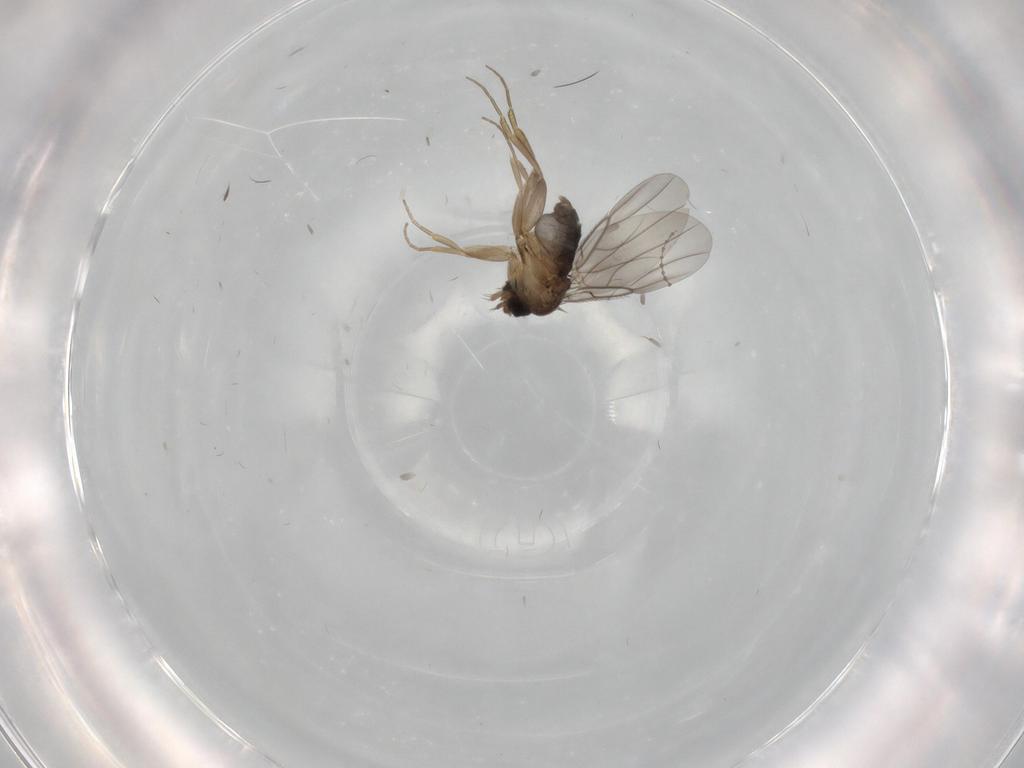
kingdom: Animalia
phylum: Arthropoda
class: Insecta
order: Diptera
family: Phoridae
